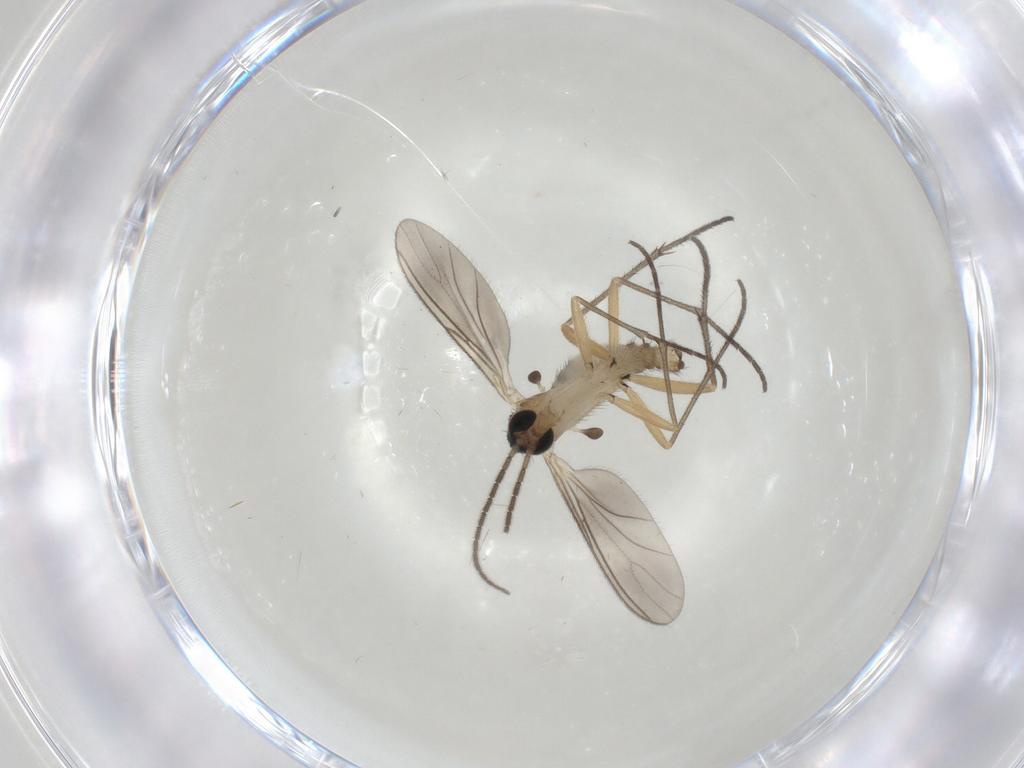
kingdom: Animalia
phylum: Arthropoda
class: Insecta
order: Diptera
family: Sciaridae
